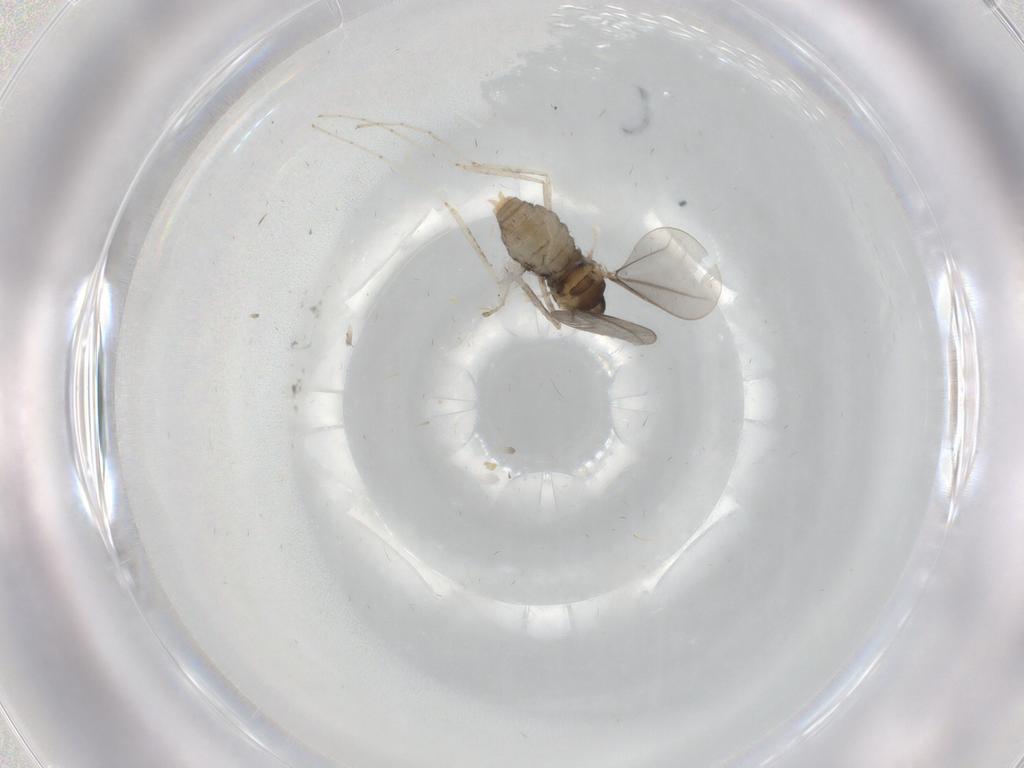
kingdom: Animalia
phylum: Arthropoda
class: Insecta
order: Diptera
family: Cecidomyiidae
